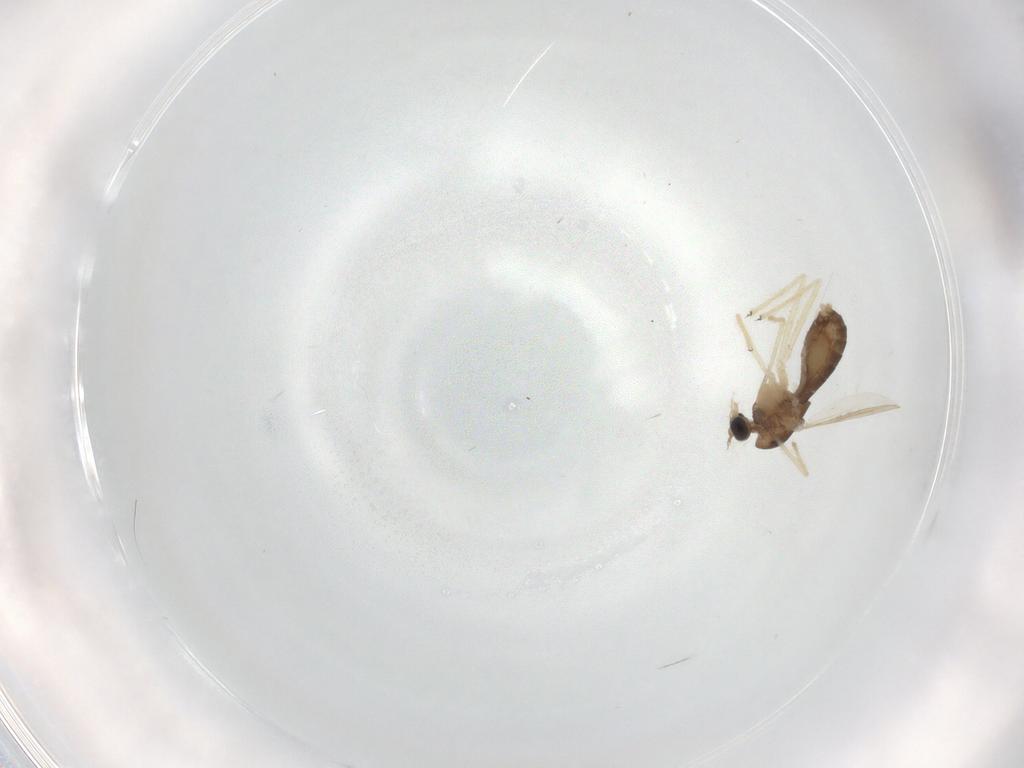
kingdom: Animalia
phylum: Arthropoda
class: Insecta
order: Diptera
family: Chironomidae
